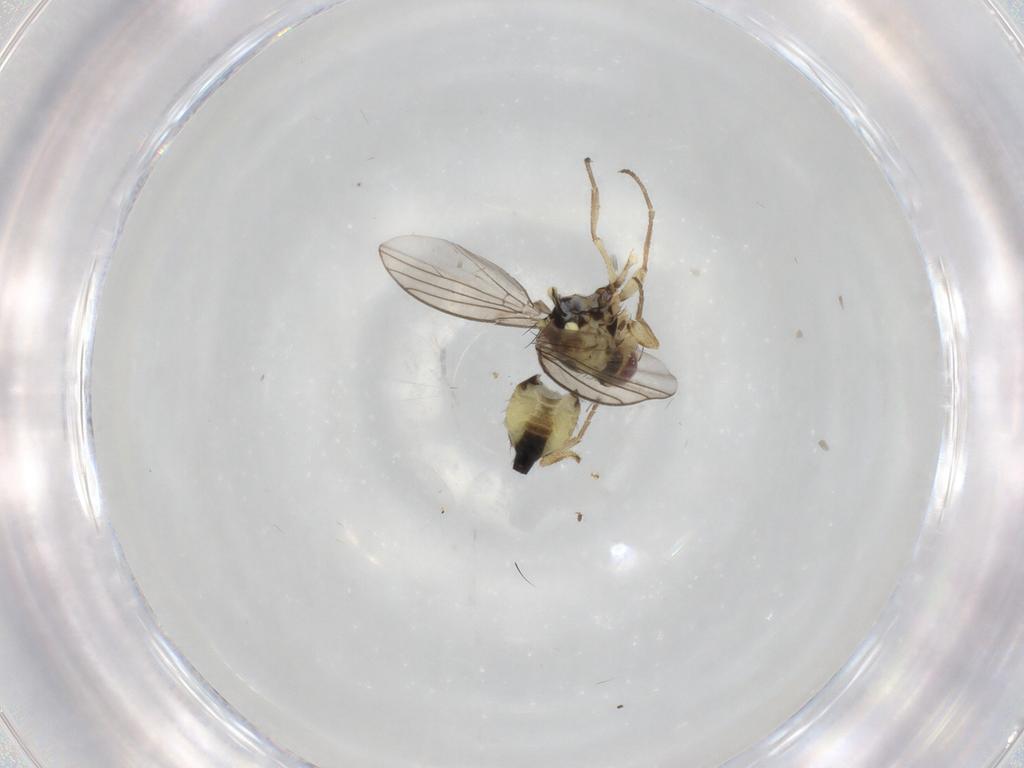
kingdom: Animalia
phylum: Arthropoda
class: Insecta
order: Diptera
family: Agromyzidae
